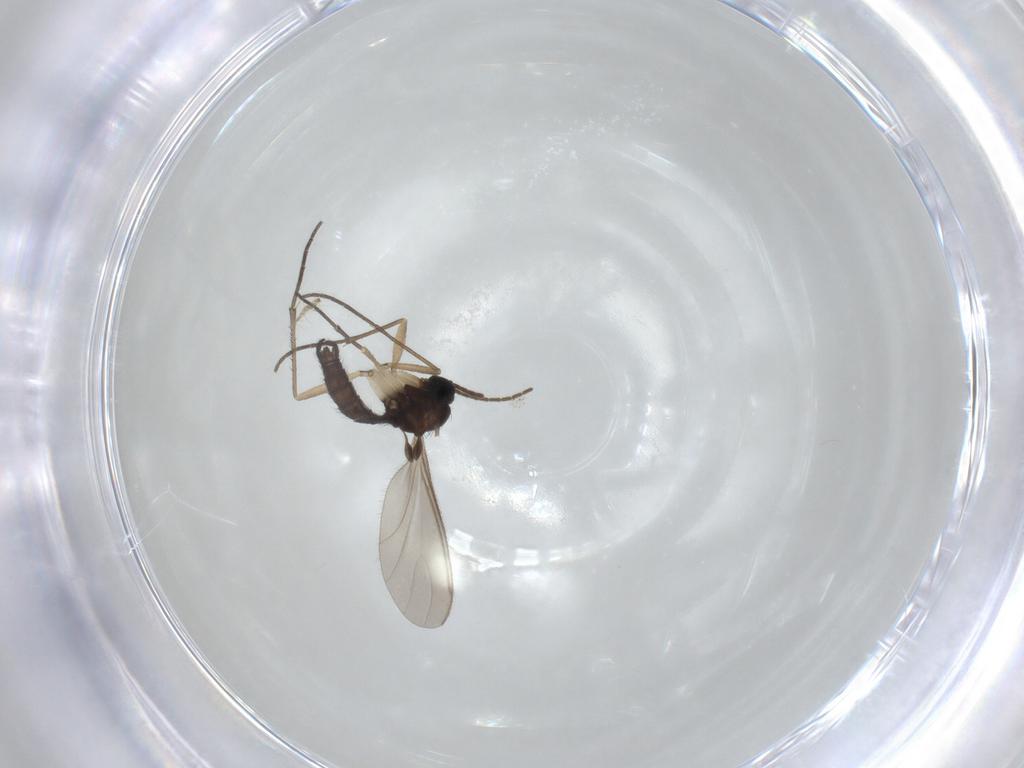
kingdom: Animalia
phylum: Arthropoda
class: Insecta
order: Diptera
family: Sciaridae
